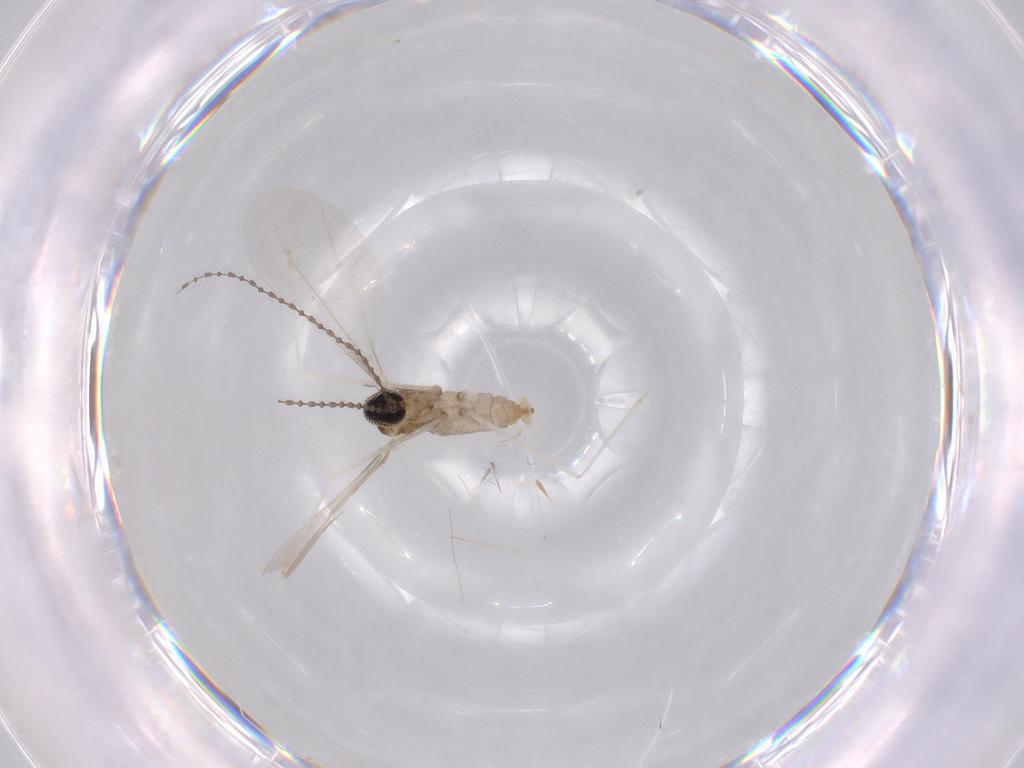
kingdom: Animalia
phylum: Arthropoda
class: Insecta
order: Diptera
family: Cecidomyiidae
